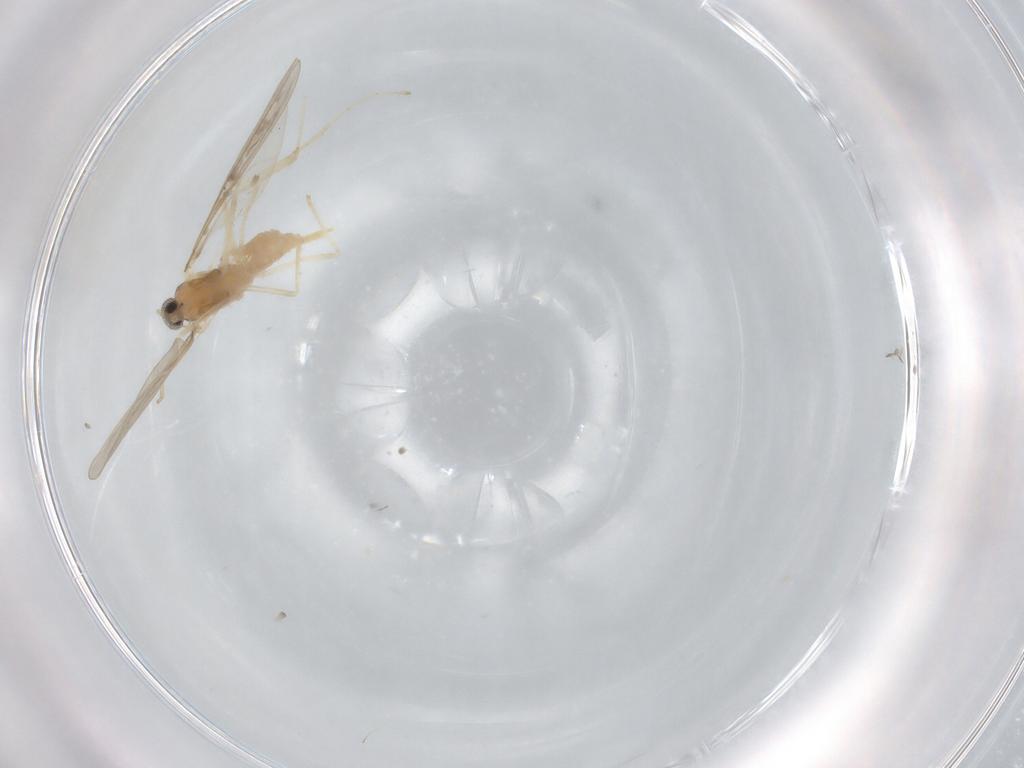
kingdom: Animalia
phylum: Arthropoda
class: Insecta
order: Diptera
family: Cecidomyiidae
